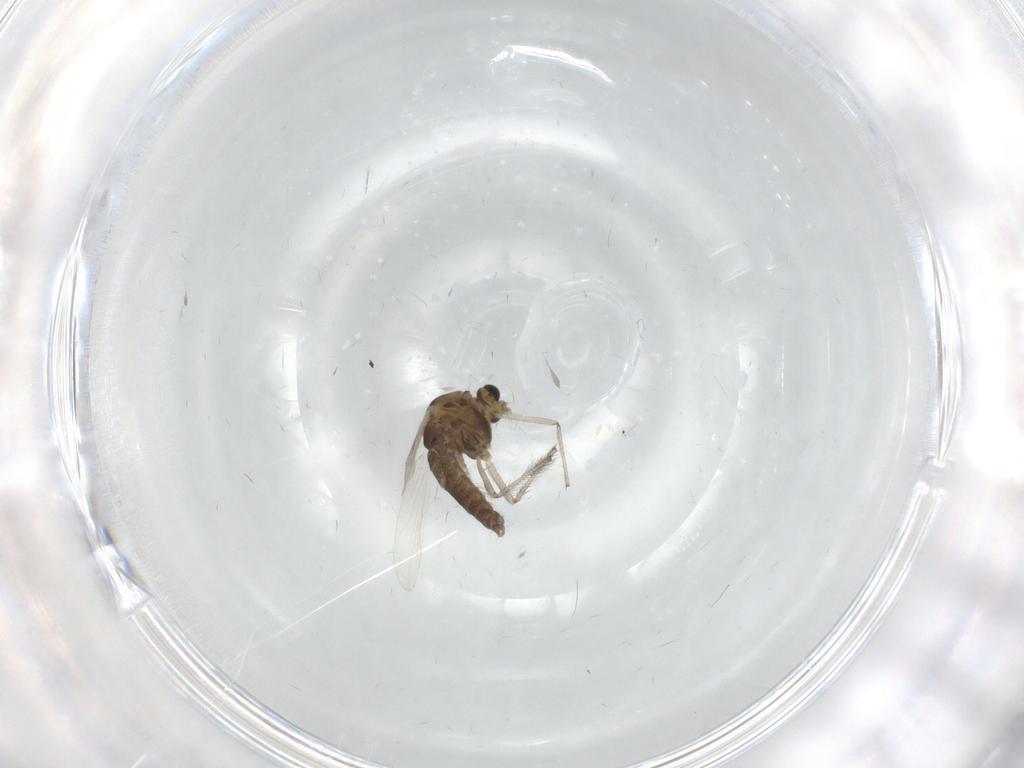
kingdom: Animalia
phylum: Arthropoda
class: Insecta
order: Diptera
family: Chironomidae
